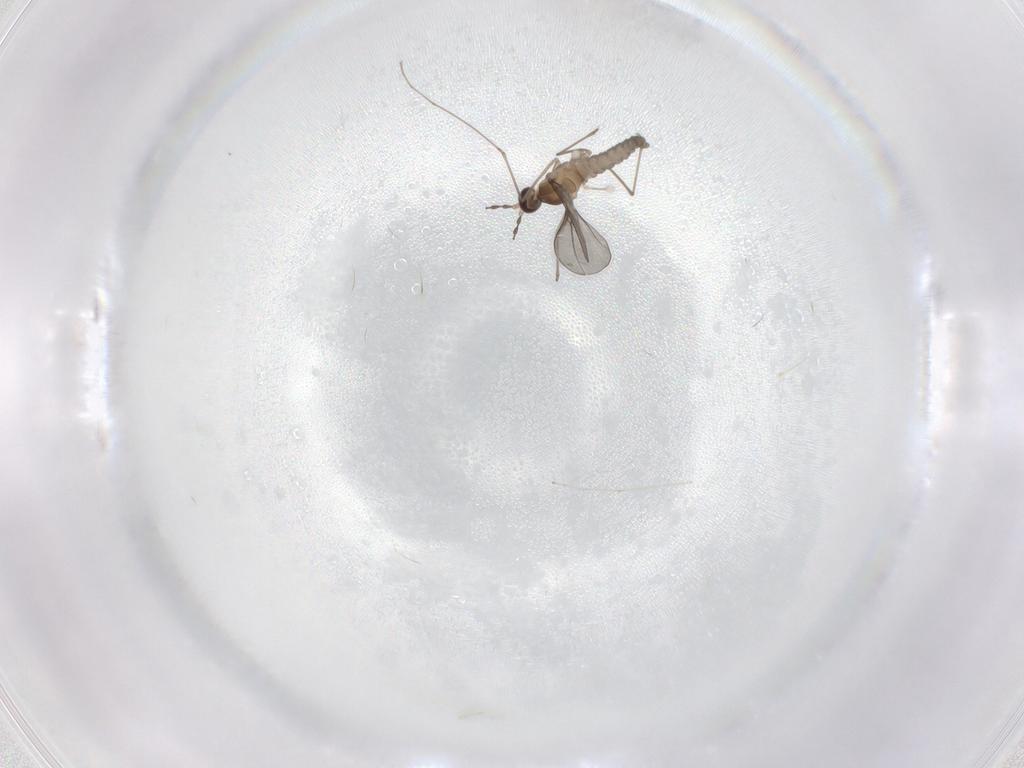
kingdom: Animalia
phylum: Arthropoda
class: Insecta
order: Diptera
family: Cecidomyiidae
